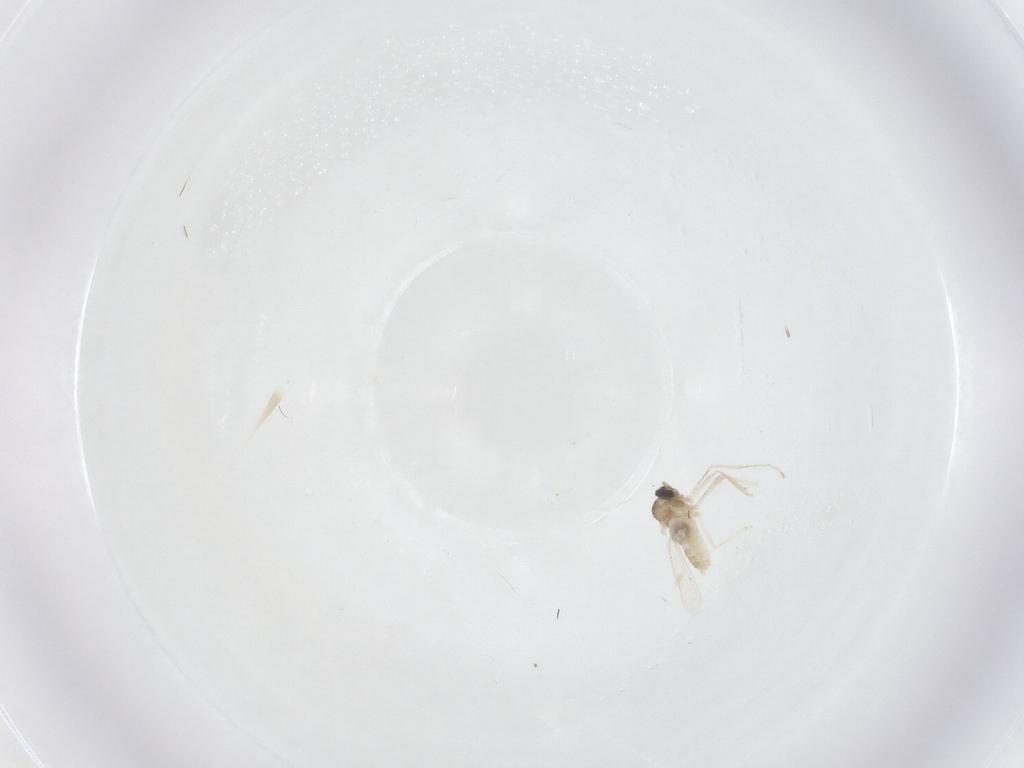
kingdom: Animalia
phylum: Arthropoda
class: Insecta
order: Diptera
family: Cecidomyiidae
